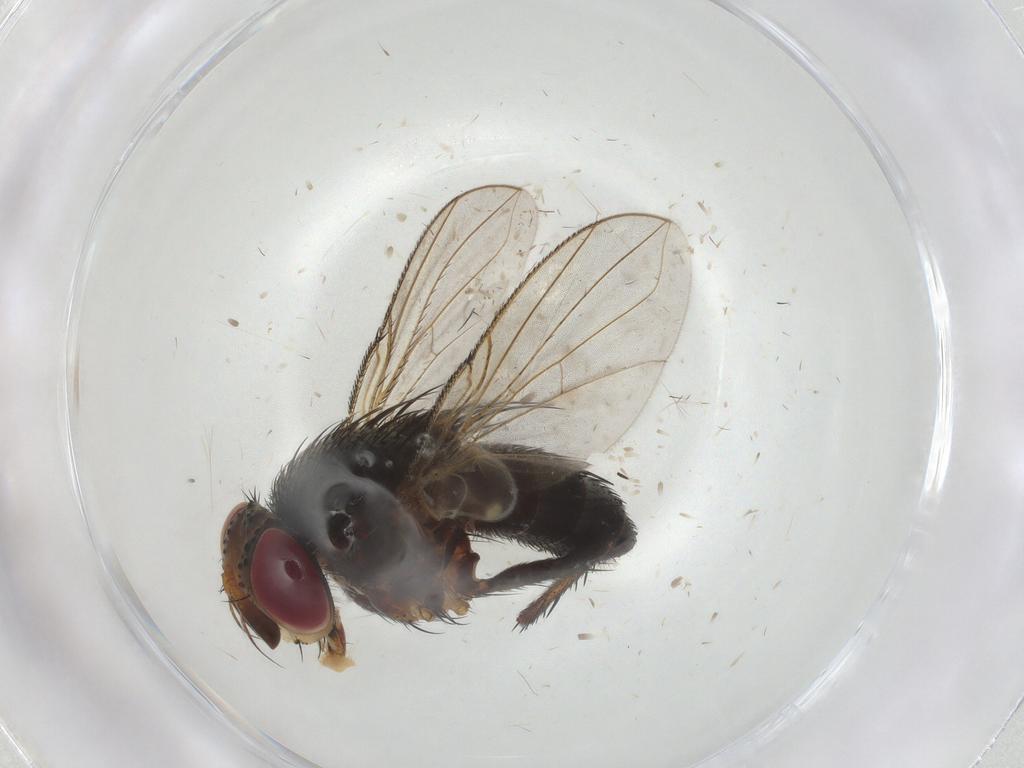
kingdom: Animalia
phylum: Arthropoda
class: Insecta
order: Diptera
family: Tachinidae
